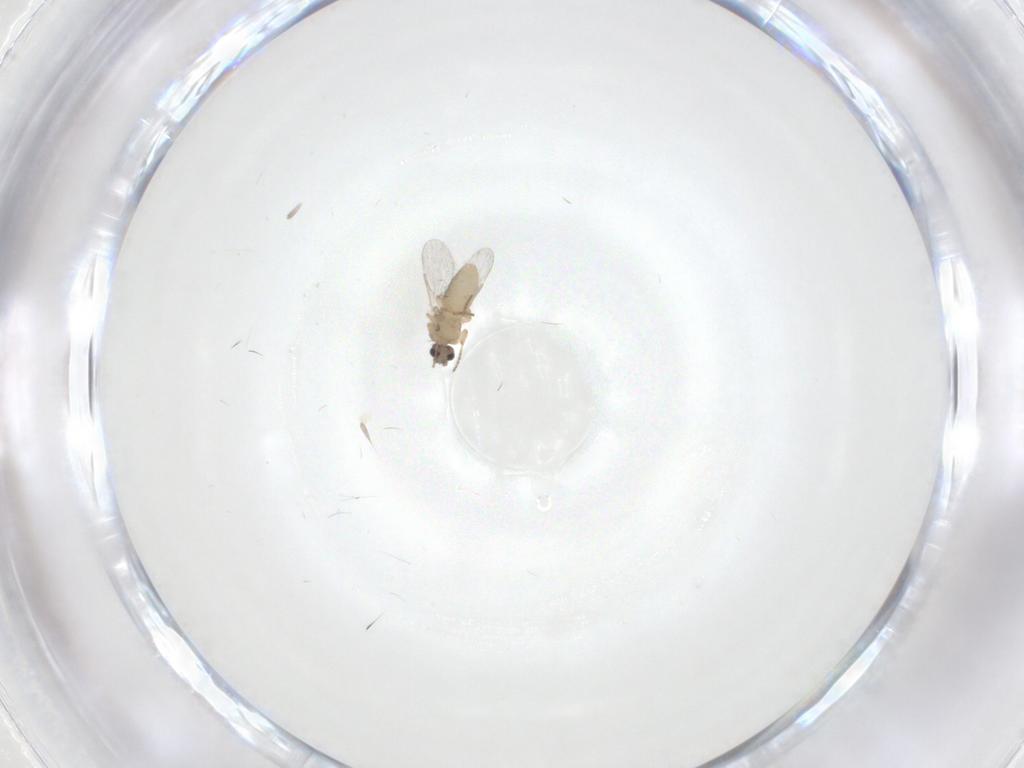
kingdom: Animalia
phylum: Arthropoda
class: Insecta
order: Diptera
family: Ceratopogonidae
